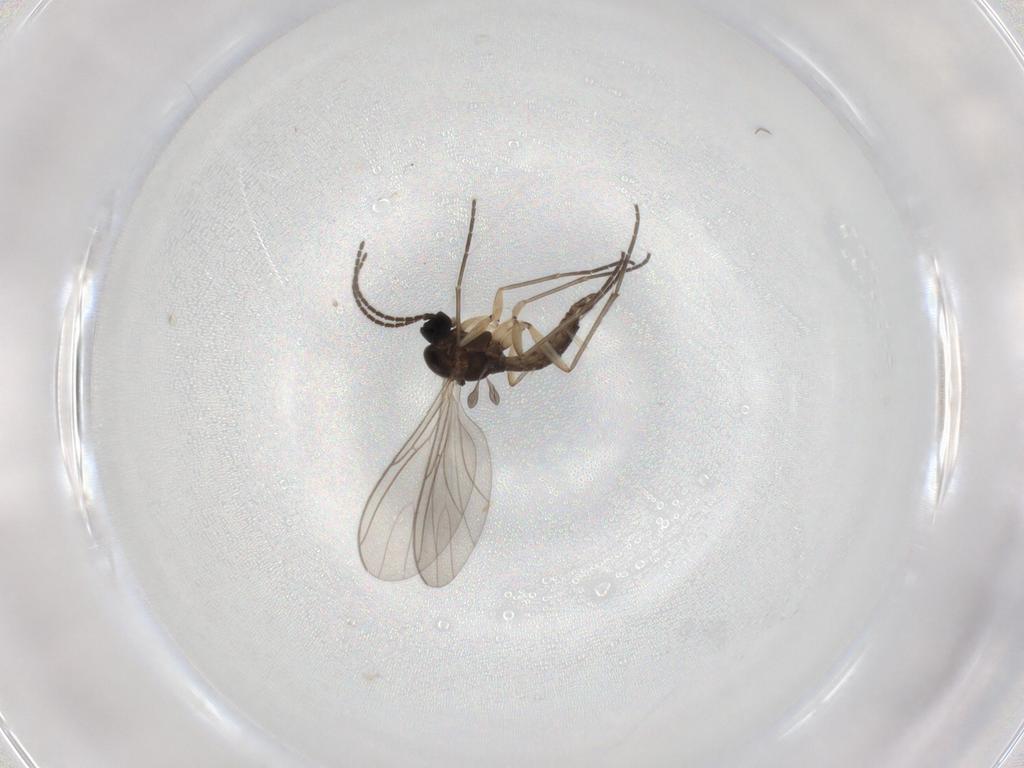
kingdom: Animalia
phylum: Arthropoda
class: Insecta
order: Diptera
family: Sciaridae
